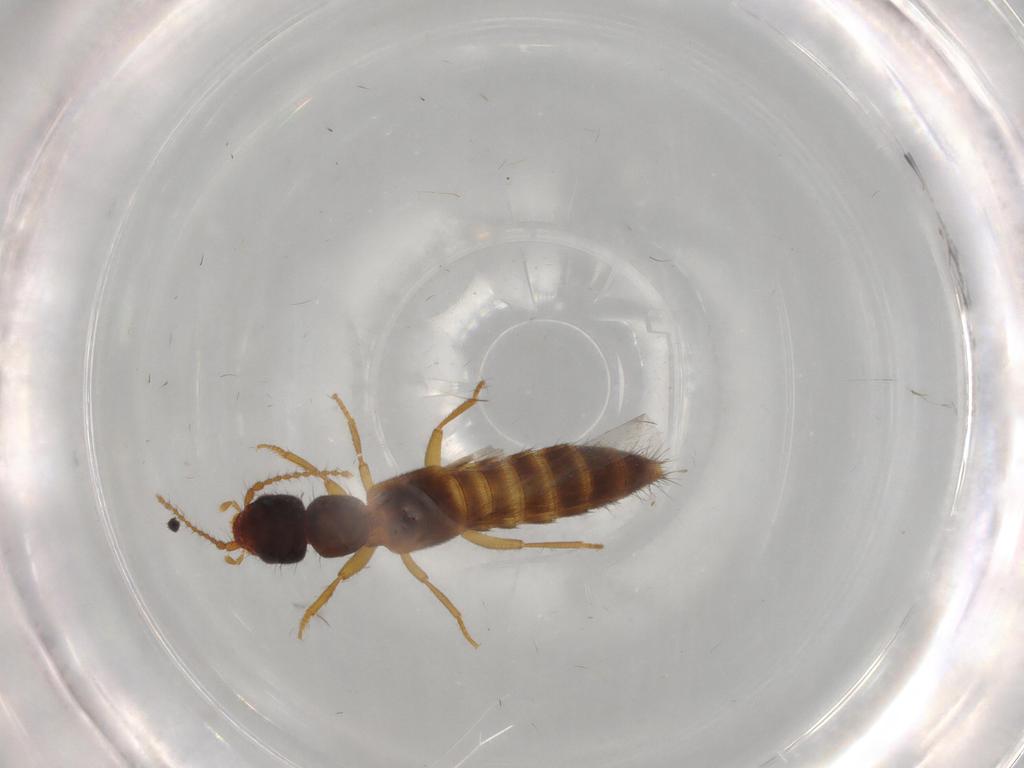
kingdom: Animalia
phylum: Arthropoda
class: Insecta
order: Coleoptera
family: Staphylinidae
